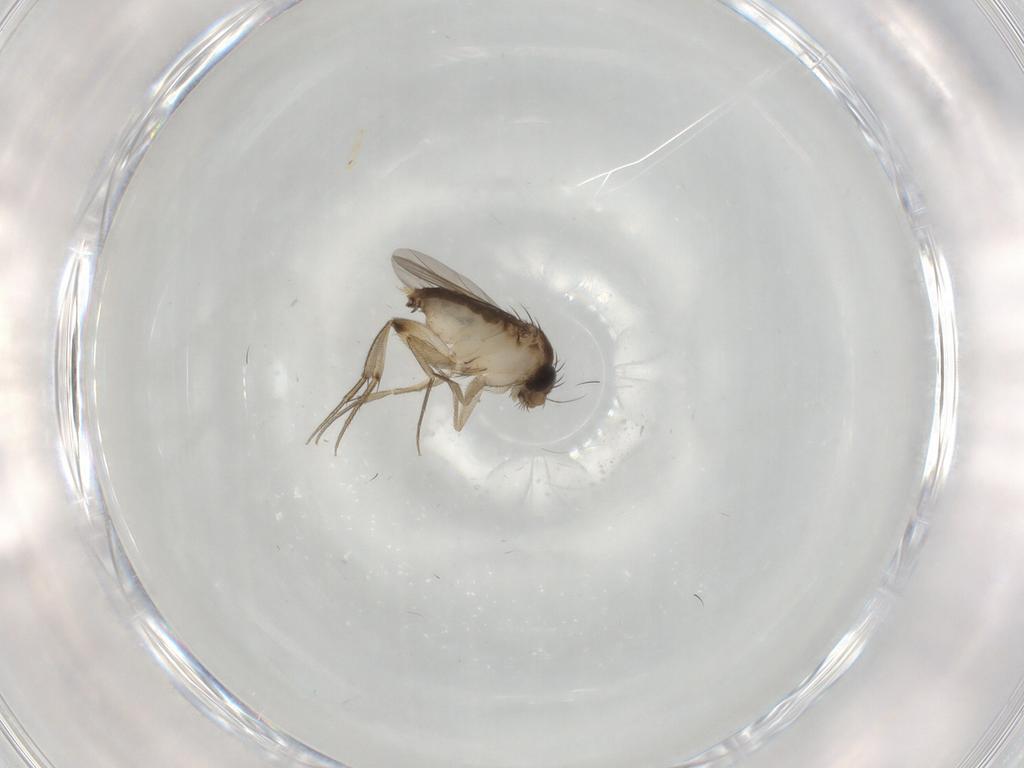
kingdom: Animalia
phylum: Arthropoda
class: Insecta
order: Diptera
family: Phoridae
